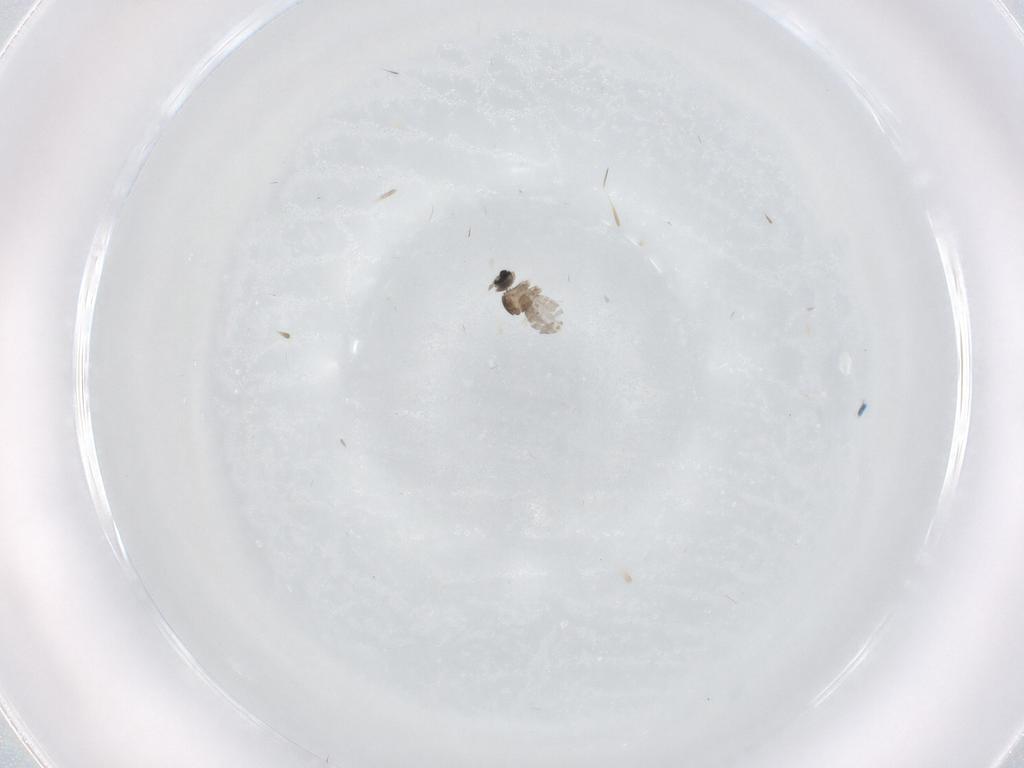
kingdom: Animalia
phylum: Arthropoda
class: Insecta
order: Diptera
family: Cecidomyiidae
